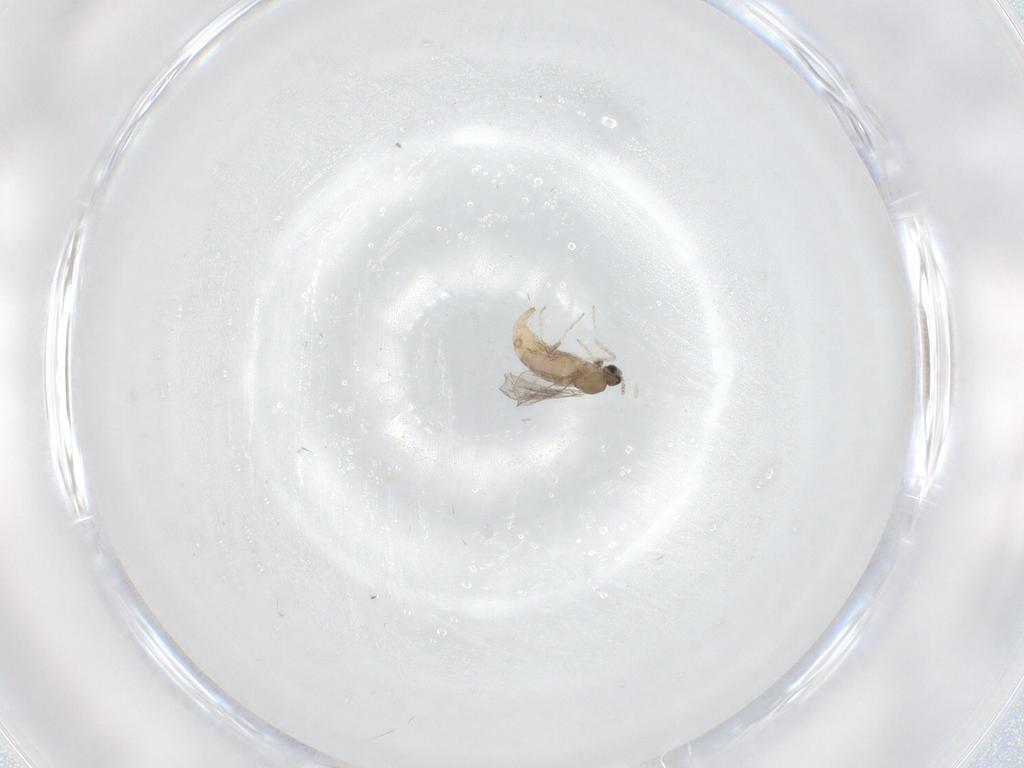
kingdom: Animalia
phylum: Arthropoda
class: Insecta
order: Diptera
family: Cecidomyiidae
